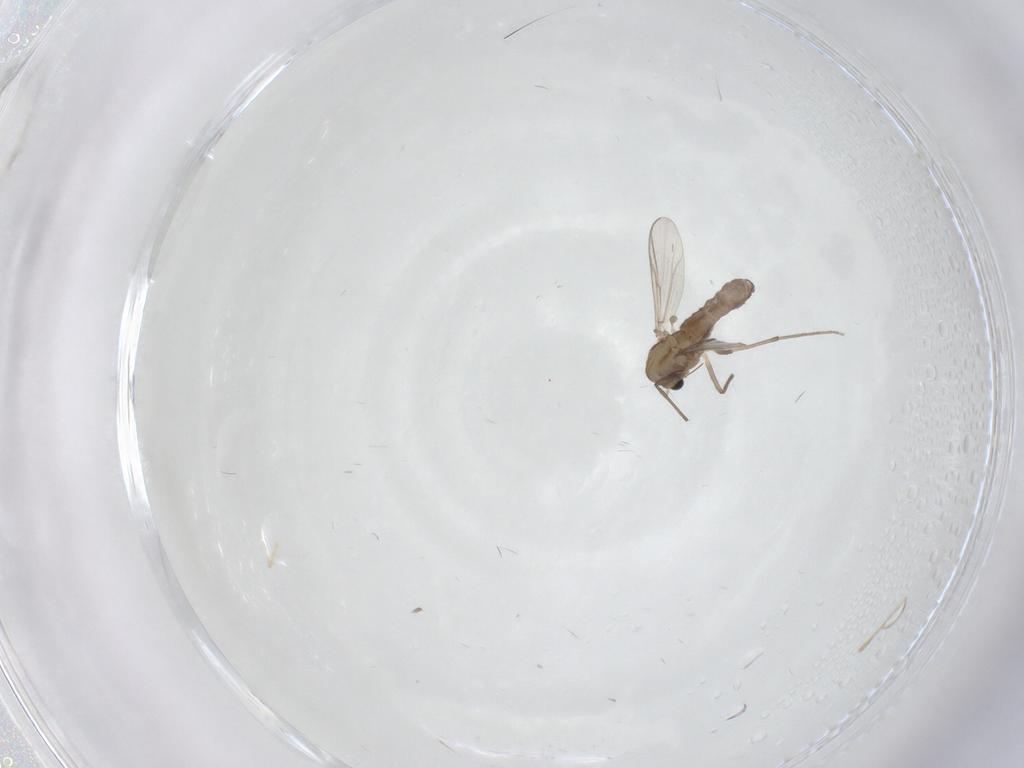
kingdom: Animalia
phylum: Arthropoda
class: Insecta
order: Diptera
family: Chironomidae
